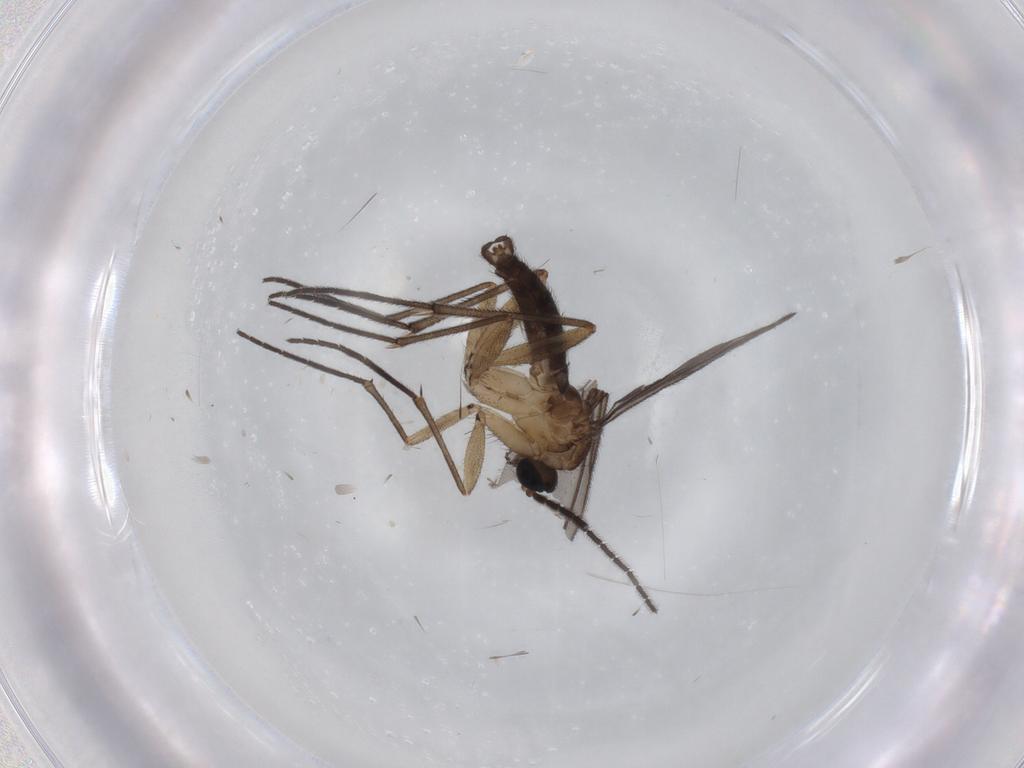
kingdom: Animalia
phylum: Arthropoda
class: Insecta
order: Diptera
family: Sciaridae
